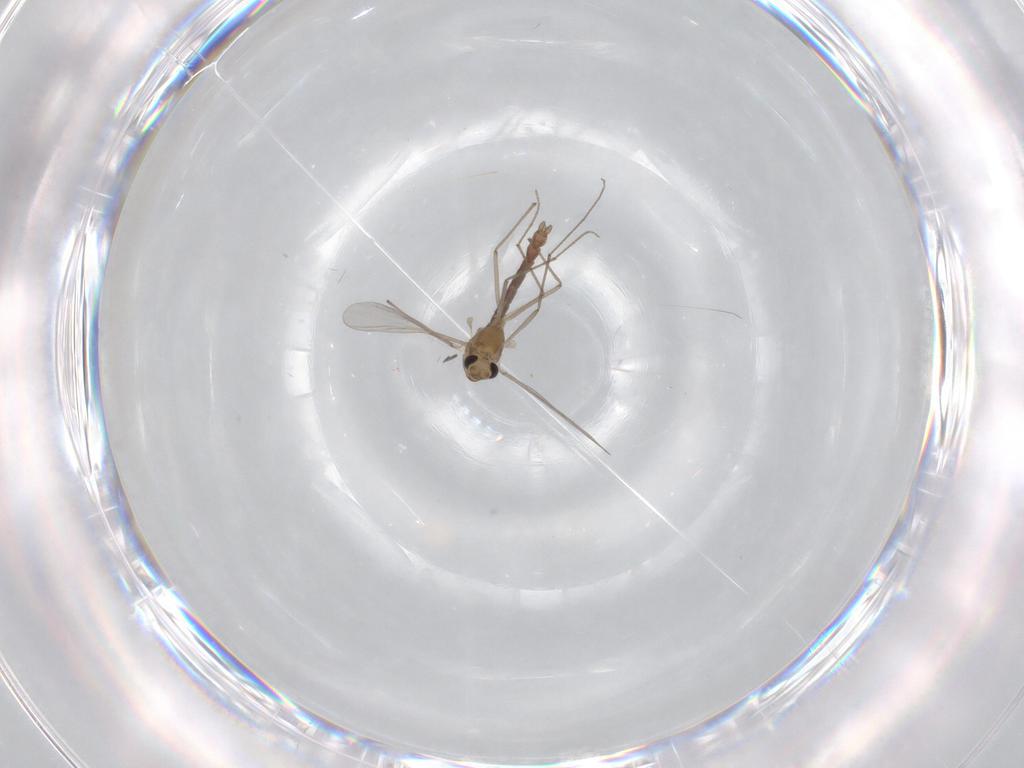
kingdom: Animalia
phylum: Arthropoda
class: Insecta
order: Diptera
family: Chironomidae
